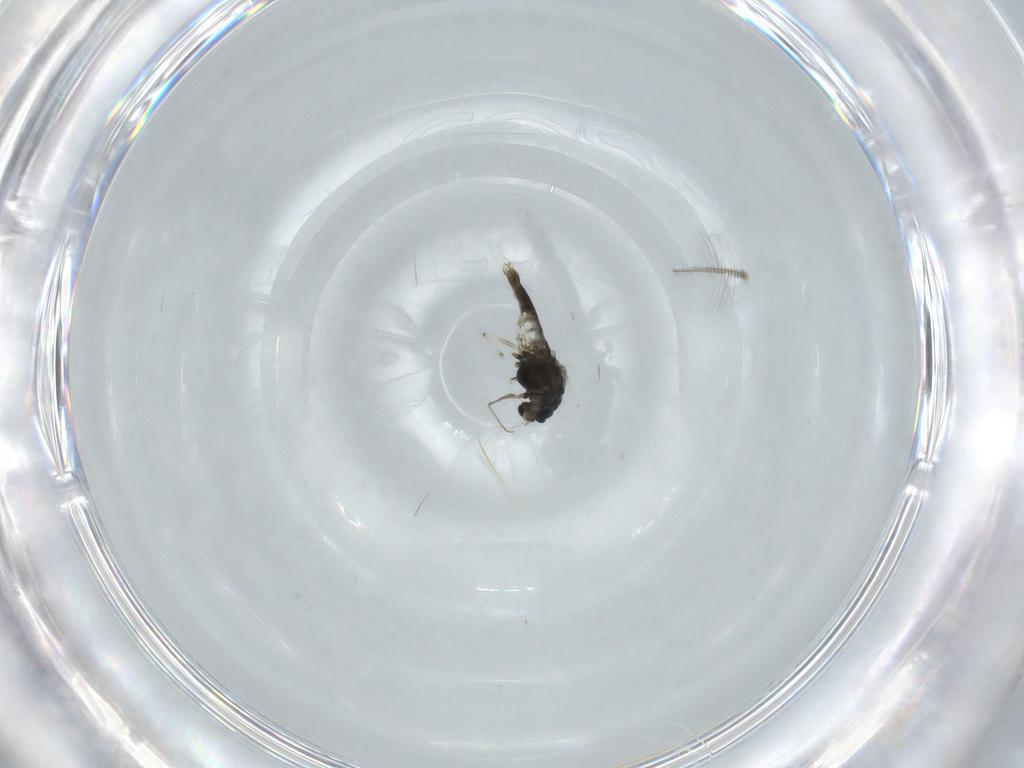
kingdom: Animalia
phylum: Arthropoda
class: Insecta
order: Diptera
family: Chironomidae
